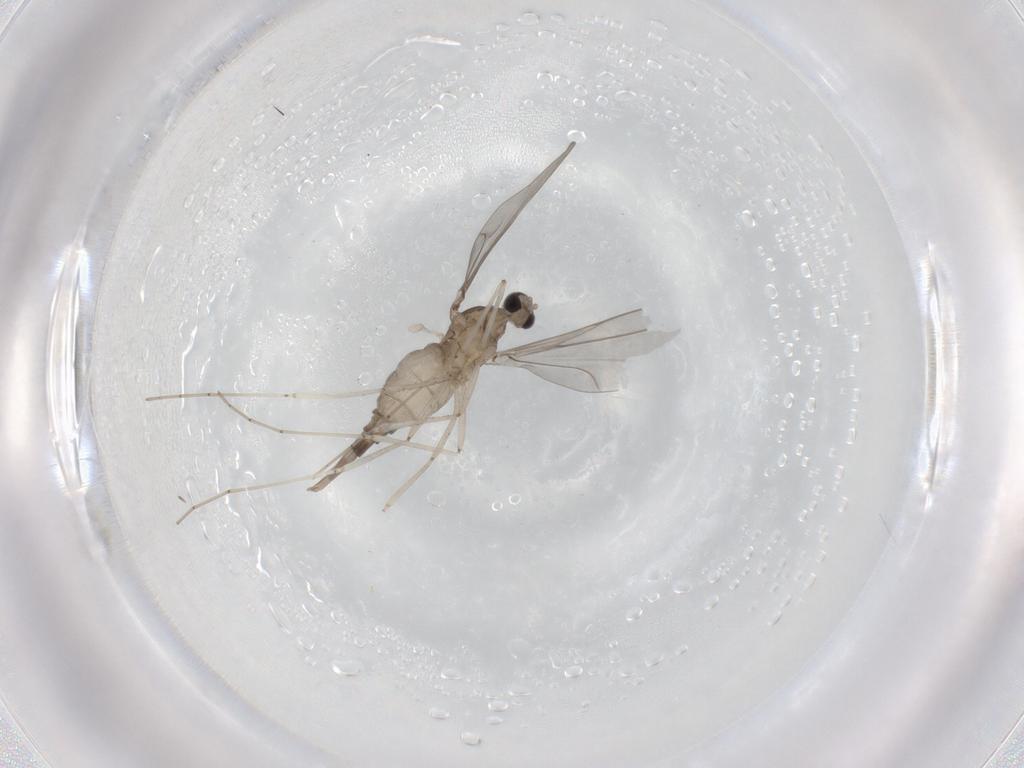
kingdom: Animalia
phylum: Arthropoda
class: Insecta
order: Diptera
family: Cecidomyiidae
